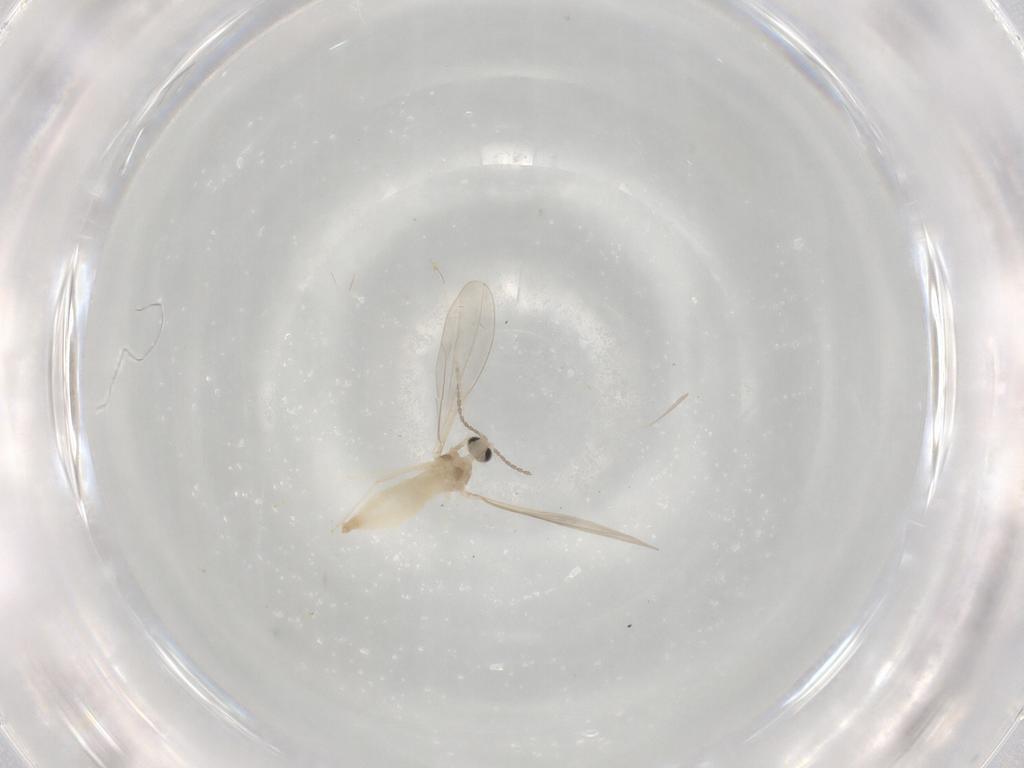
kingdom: Animalia
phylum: Arthropoda
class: Insecta
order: Diptera
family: Cecidomyiidae
